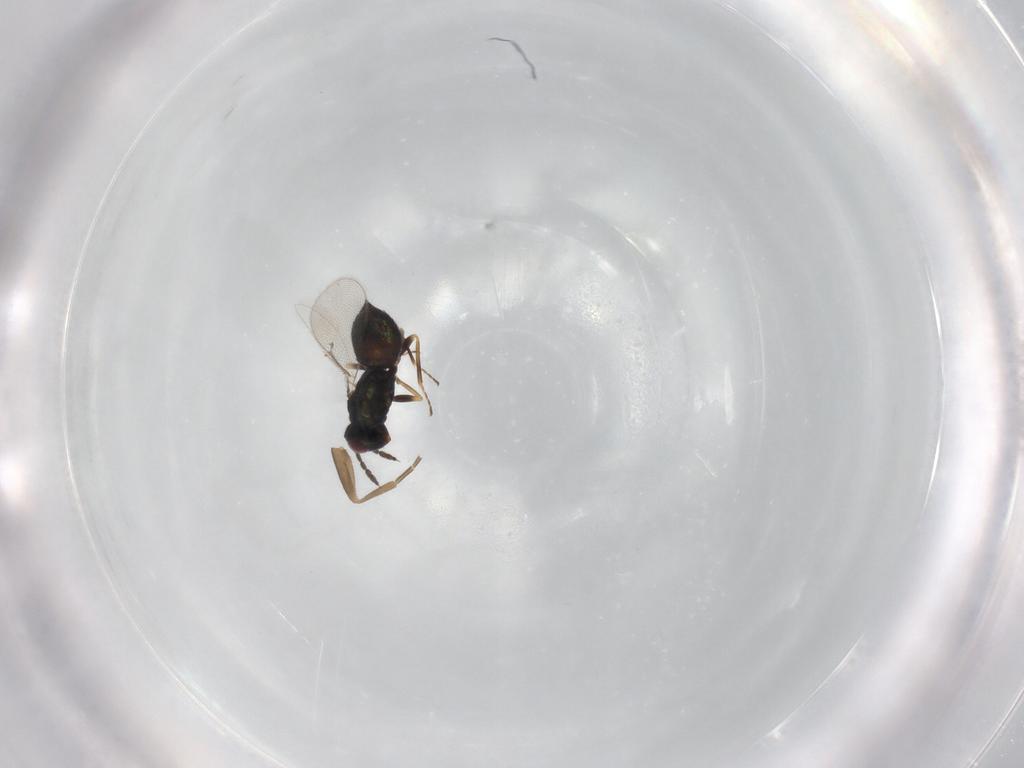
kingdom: Animalia
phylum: Arthropoda
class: Insecta
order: Hymenoptera
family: Eulophidae
